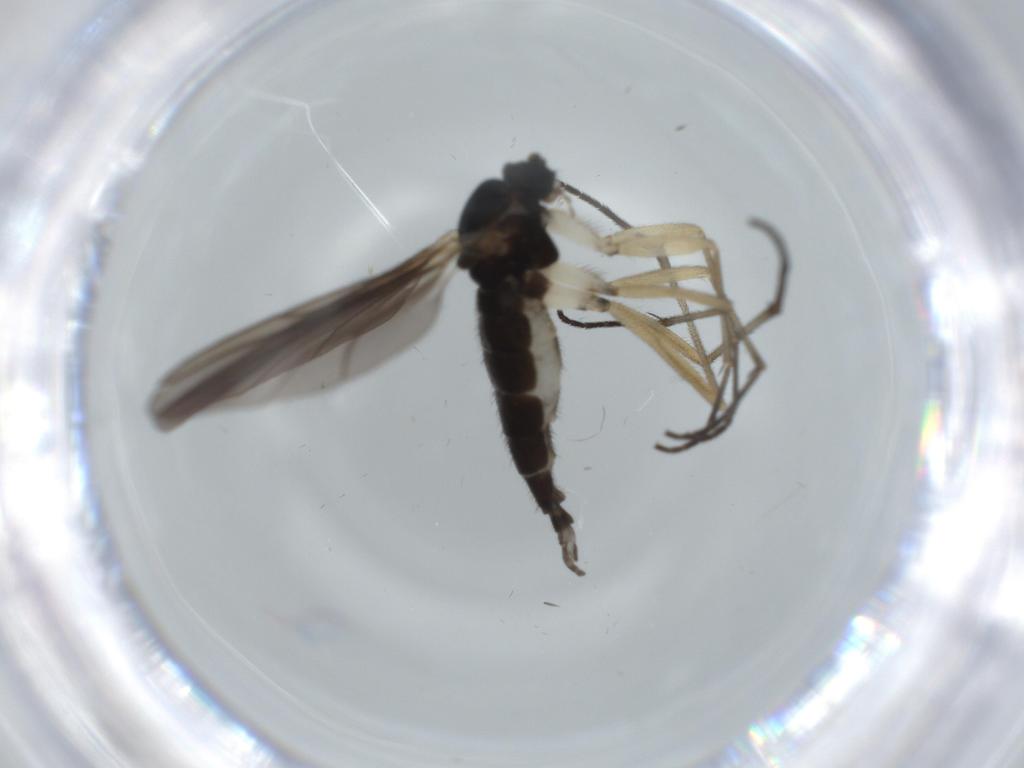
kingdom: Animalia
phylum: Arthropoda
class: Insecta
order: Diptera
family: Sciaridae
